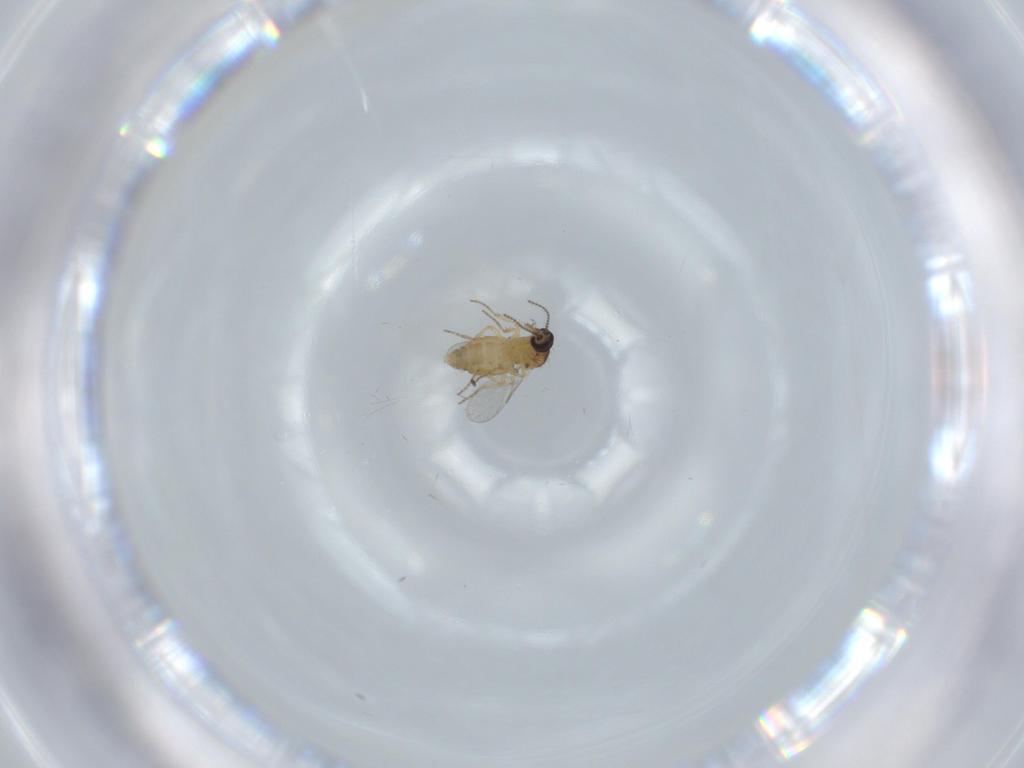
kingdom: Animalia
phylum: Arthropoda
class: Insecta
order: Diptera
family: Ceratopogonidae
